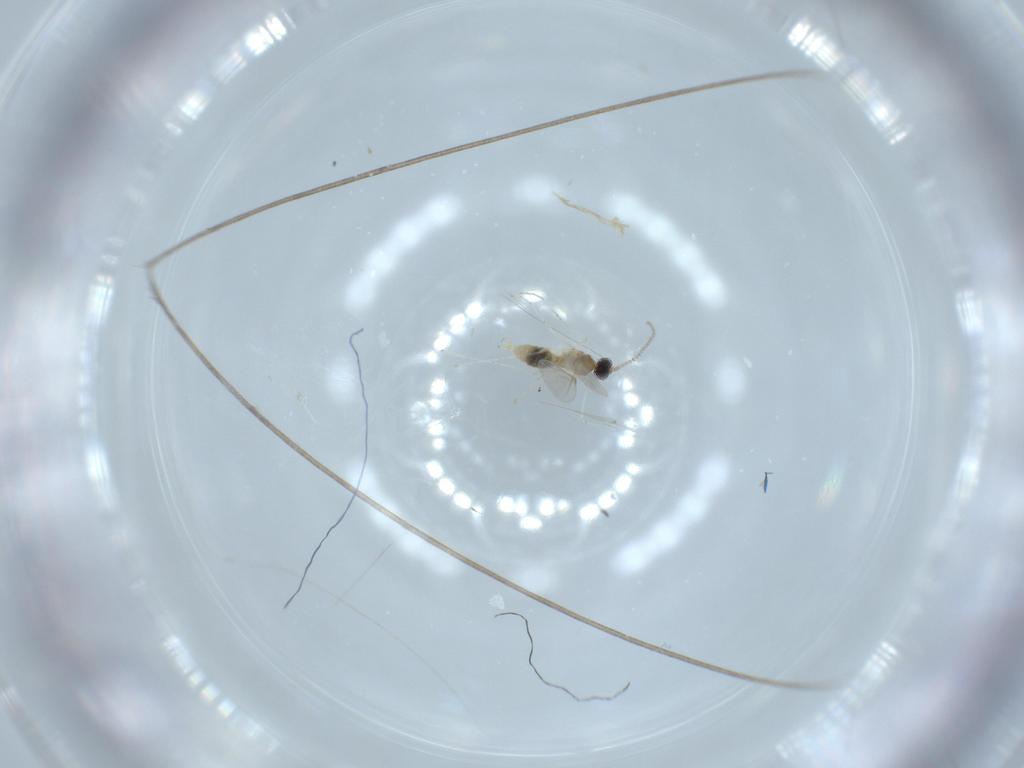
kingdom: Animalia
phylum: Arthropoda
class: Insecta
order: Diptera
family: Cecidomyiidae
